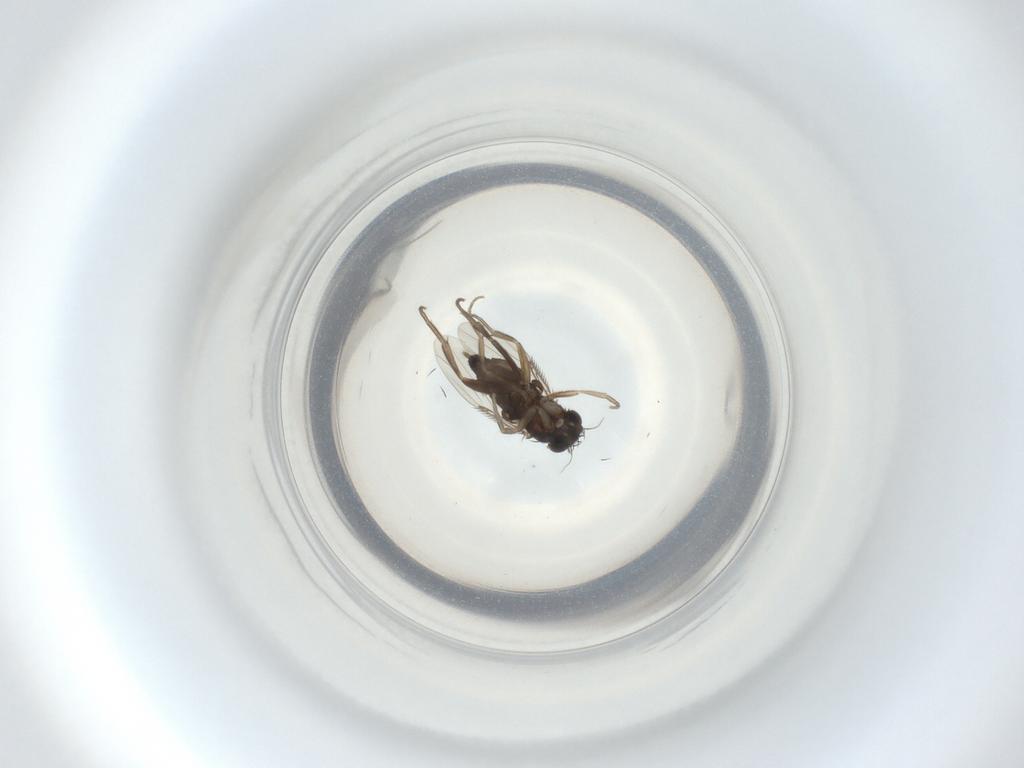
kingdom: Animalia
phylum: Arthropoda
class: Insecta
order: Diptera
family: Phoridae
